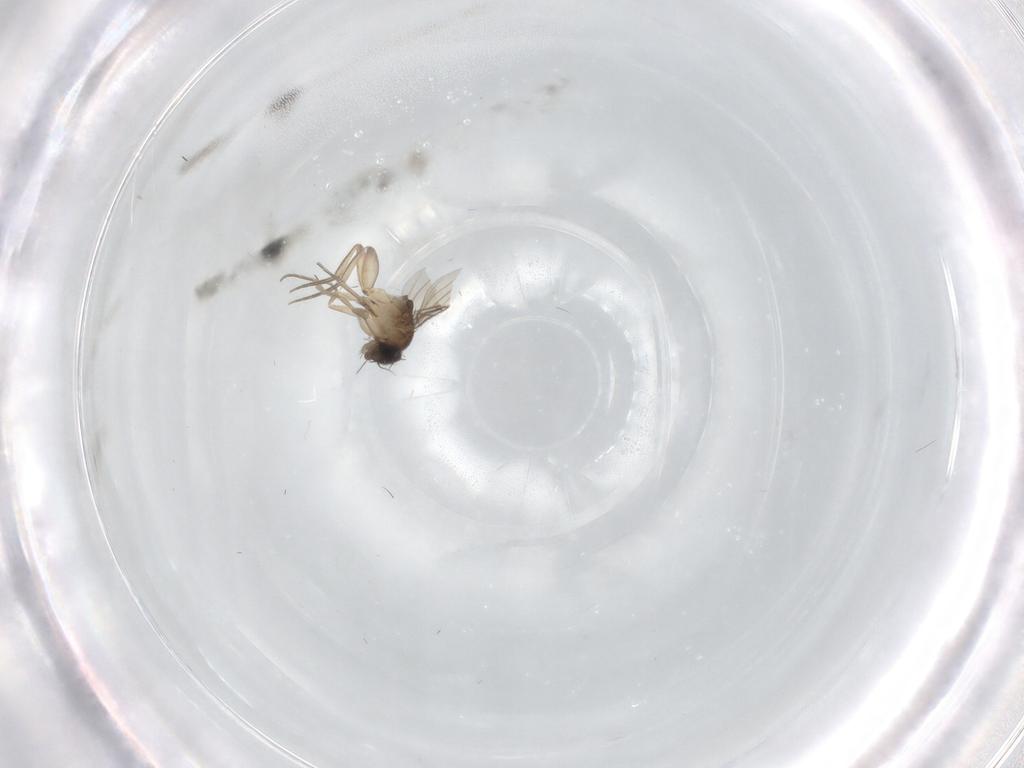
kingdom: Animalia
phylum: Arthropoda
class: Insecta
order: Diptera
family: Phoridae
